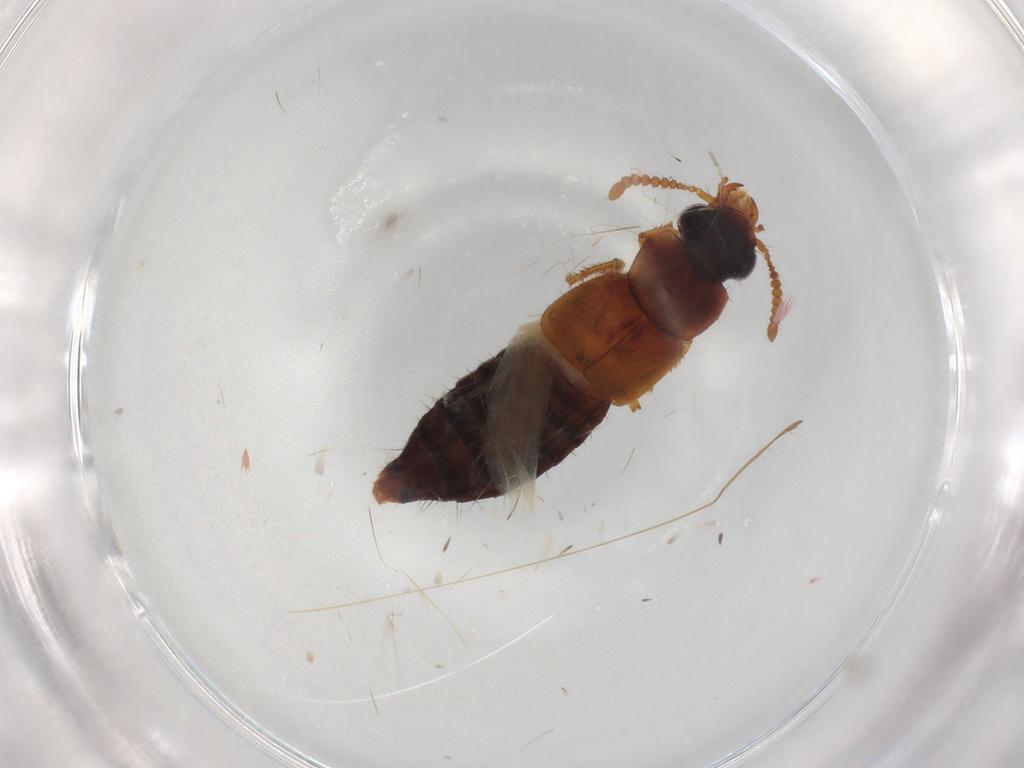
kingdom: Animalia
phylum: Arthropoda
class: Insecta
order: Coleoptera
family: Staphylinidae
